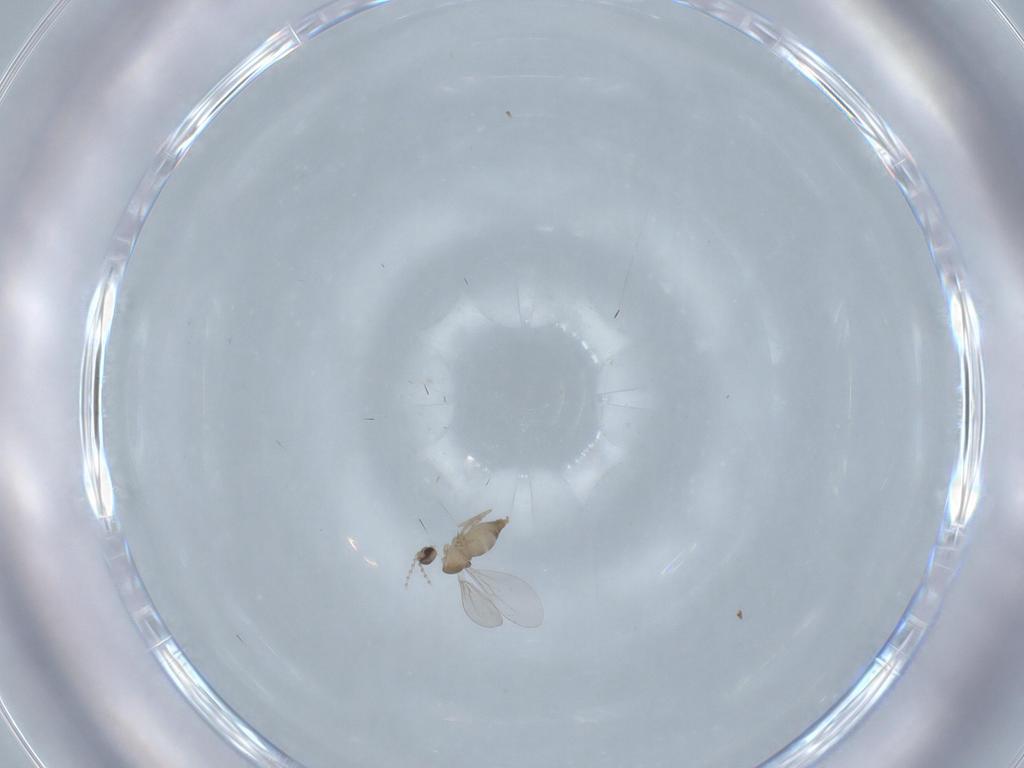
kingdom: Animalia
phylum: Arthropoda
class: Insecta
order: Diptera
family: Cecidomyiidae
